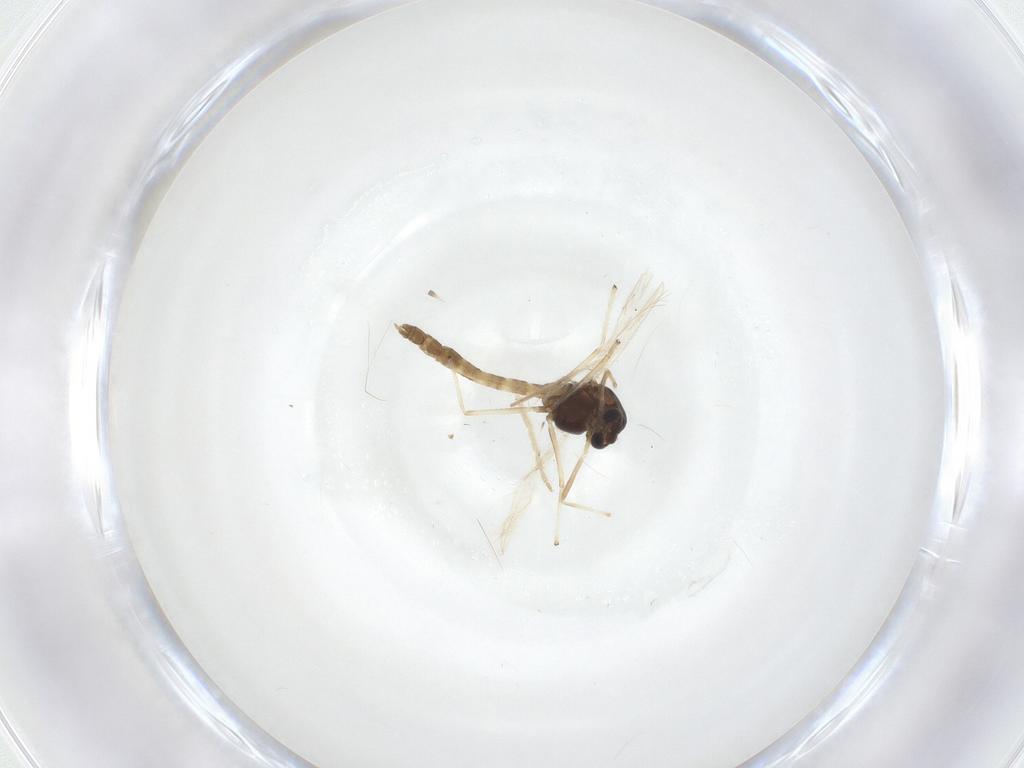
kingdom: Animalia
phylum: Arthropoda
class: Insecta
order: Diptera
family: Chironomidae
